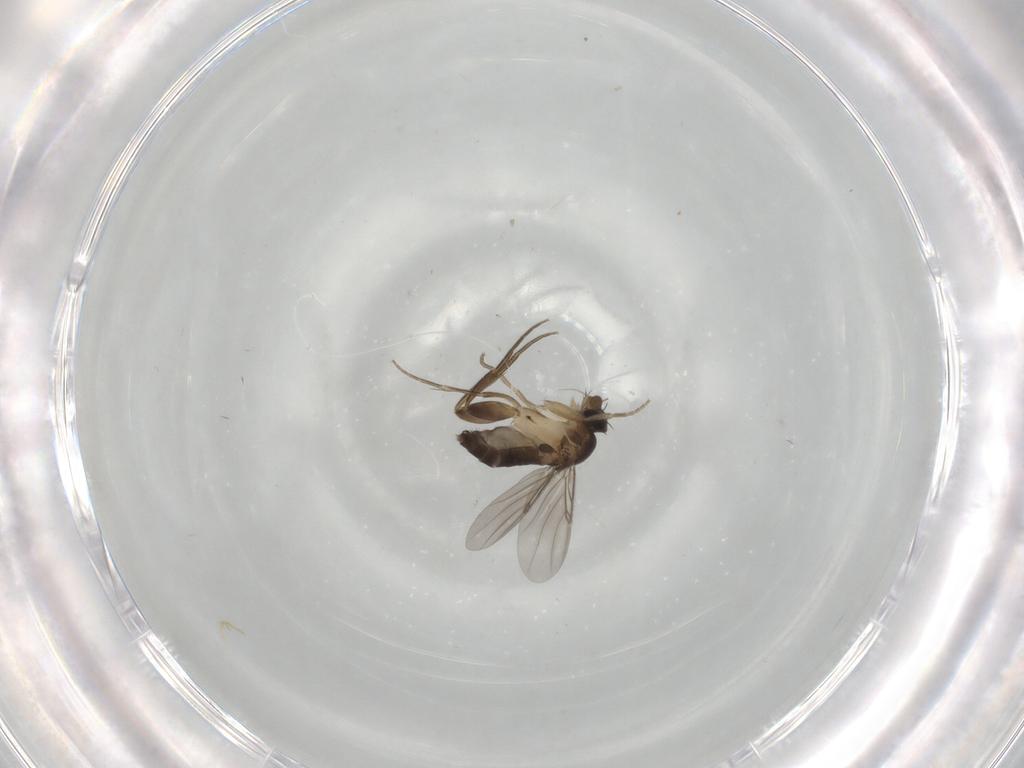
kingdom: Animalia
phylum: Arthropoda
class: Insecta
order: Diptera
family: Phoridae
